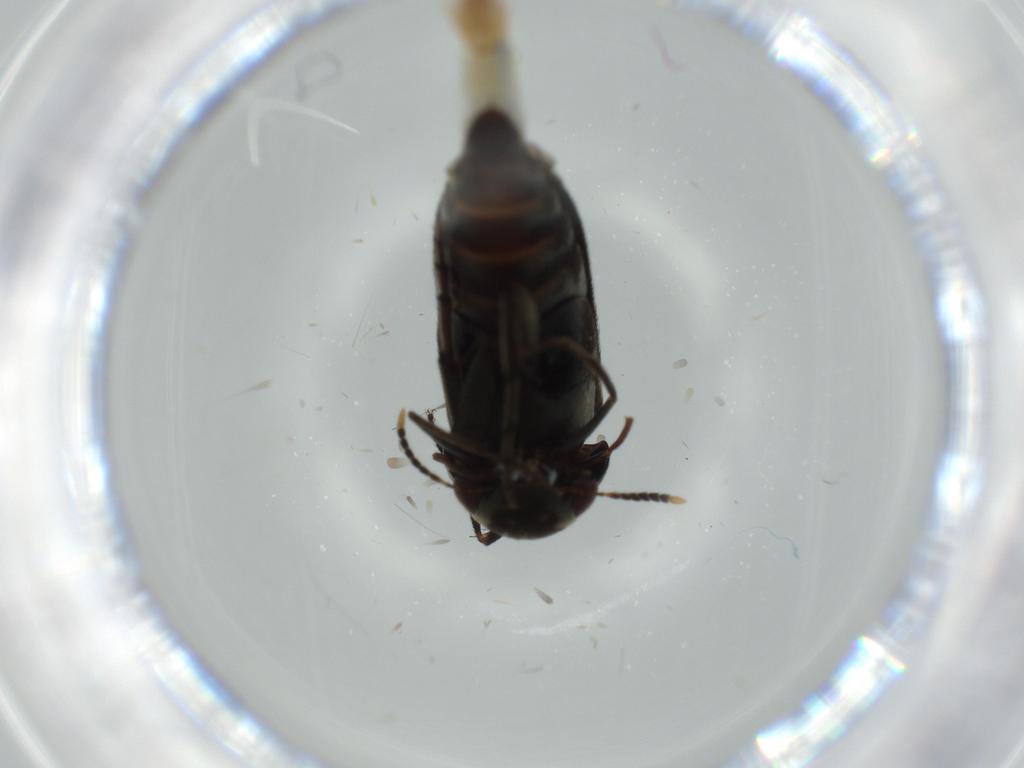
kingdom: Animalia
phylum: Arthropoda
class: Insecta
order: Coleoptera
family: Mordellidae
